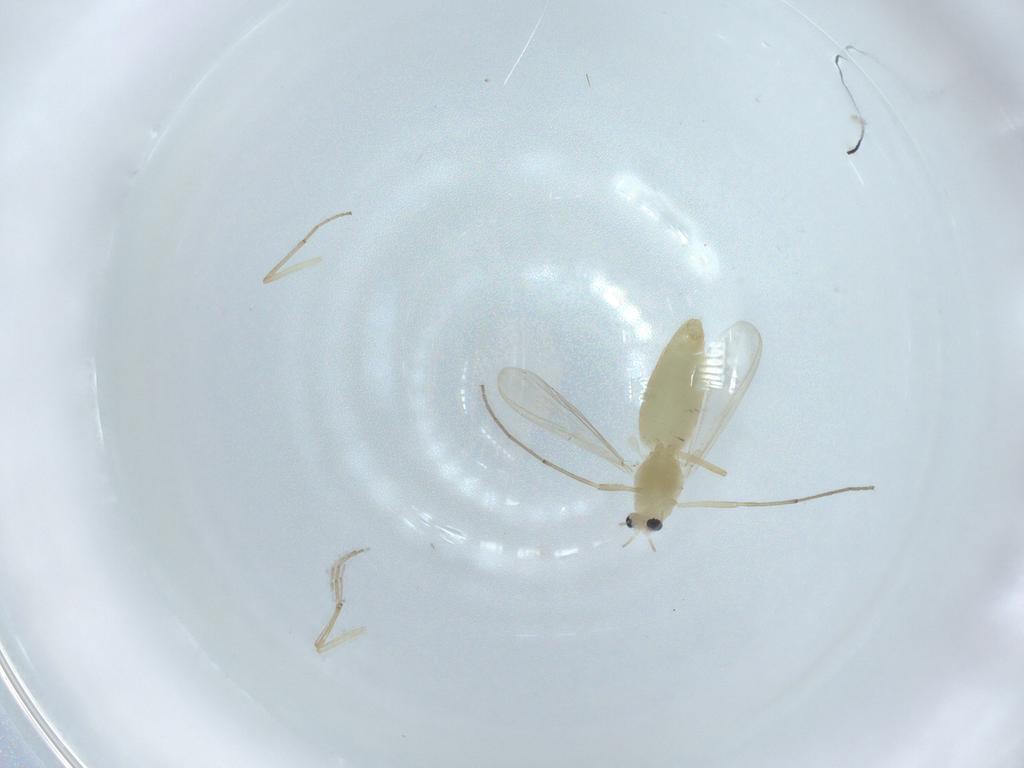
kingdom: Animalia
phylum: Arthropoda
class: Insecta
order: Diptera
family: Chironomidae
